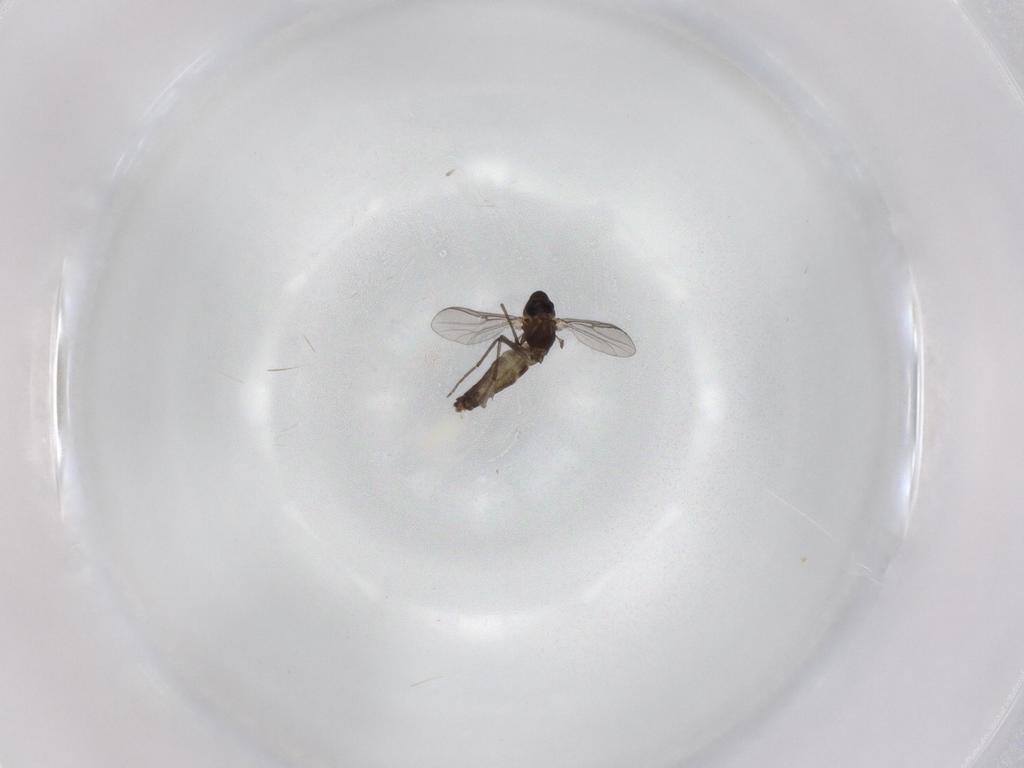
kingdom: Animalia
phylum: Arthropoda
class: Insecta
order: Diptera
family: Chironomidae
